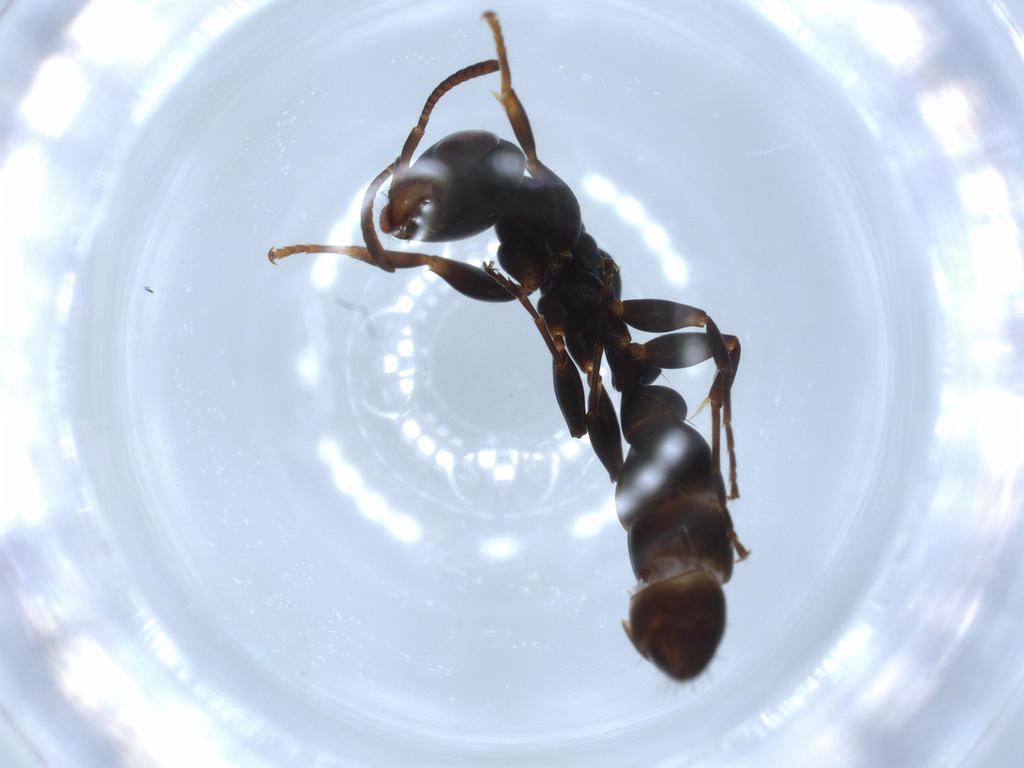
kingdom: Animalia
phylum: Arthropoda
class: Insecta
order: Hymenoptera
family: Formicidae
